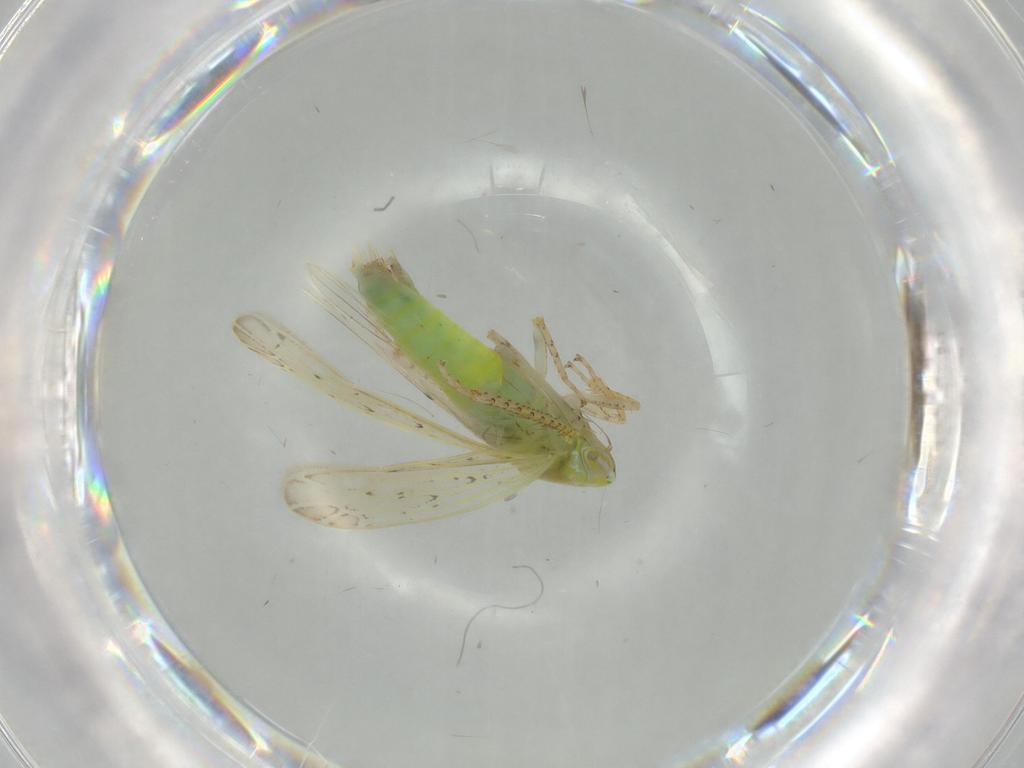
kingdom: Animalia
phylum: Arthropoda
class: Insecta
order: Hemiptera
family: Cicadellidae
